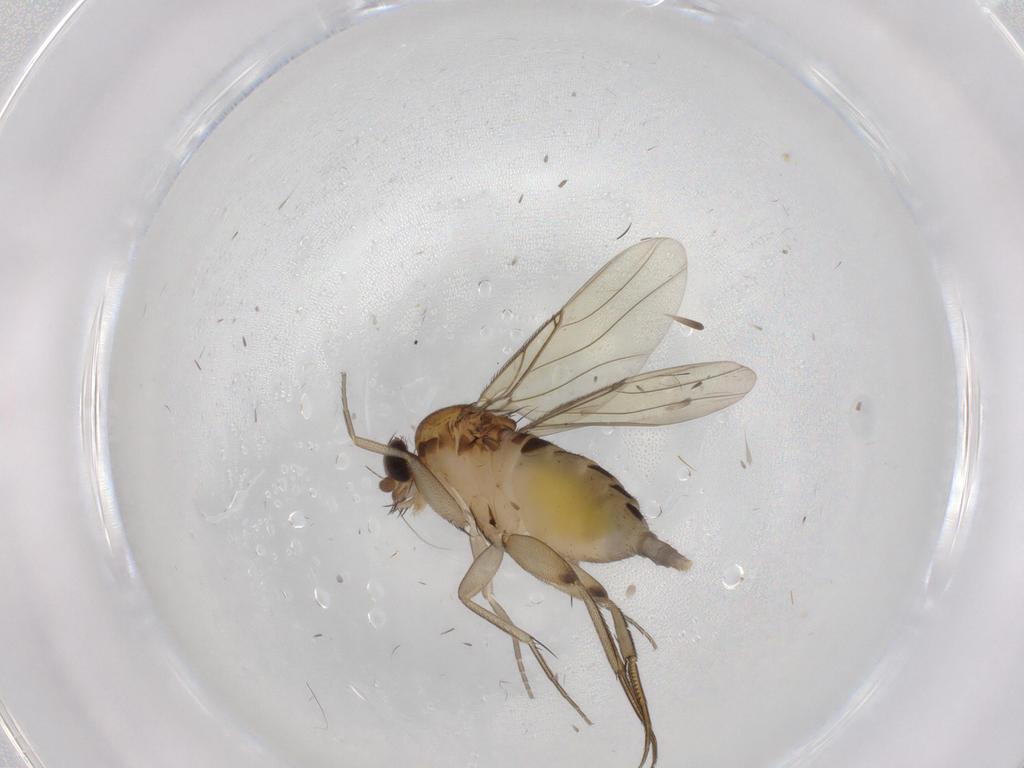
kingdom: Animalia
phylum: Arthropoda
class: Insecta
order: Diptera
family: Phoridae
